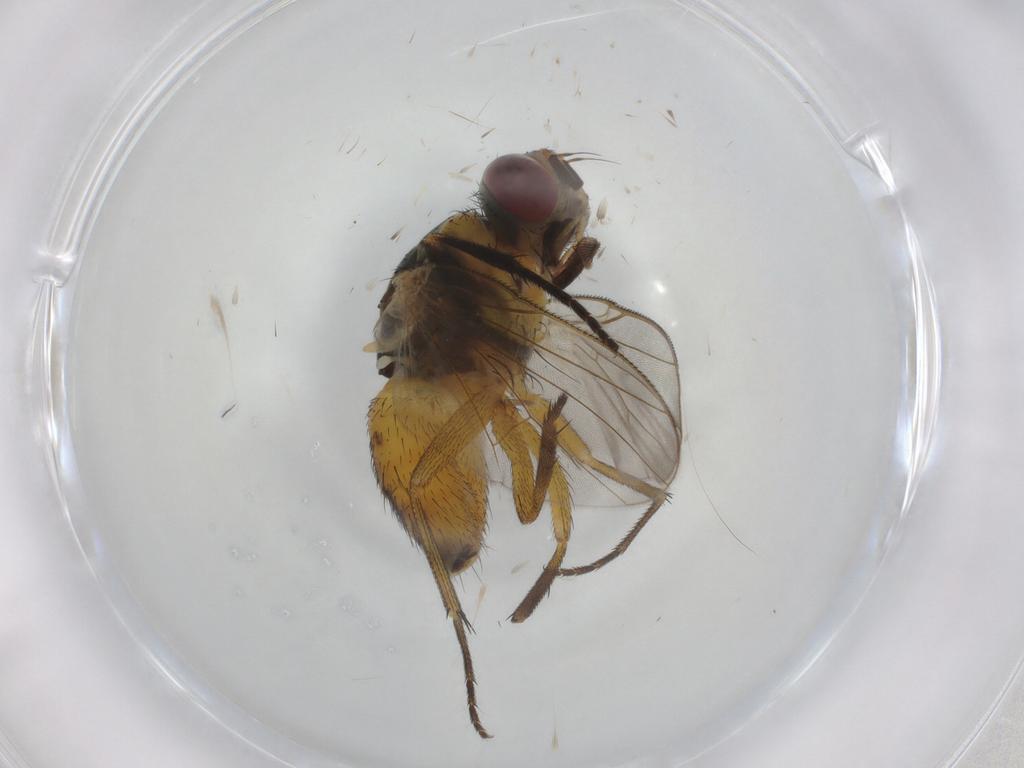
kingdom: Animalia
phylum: Arthropoda
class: Insecta
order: Diptera
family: Muscidae
